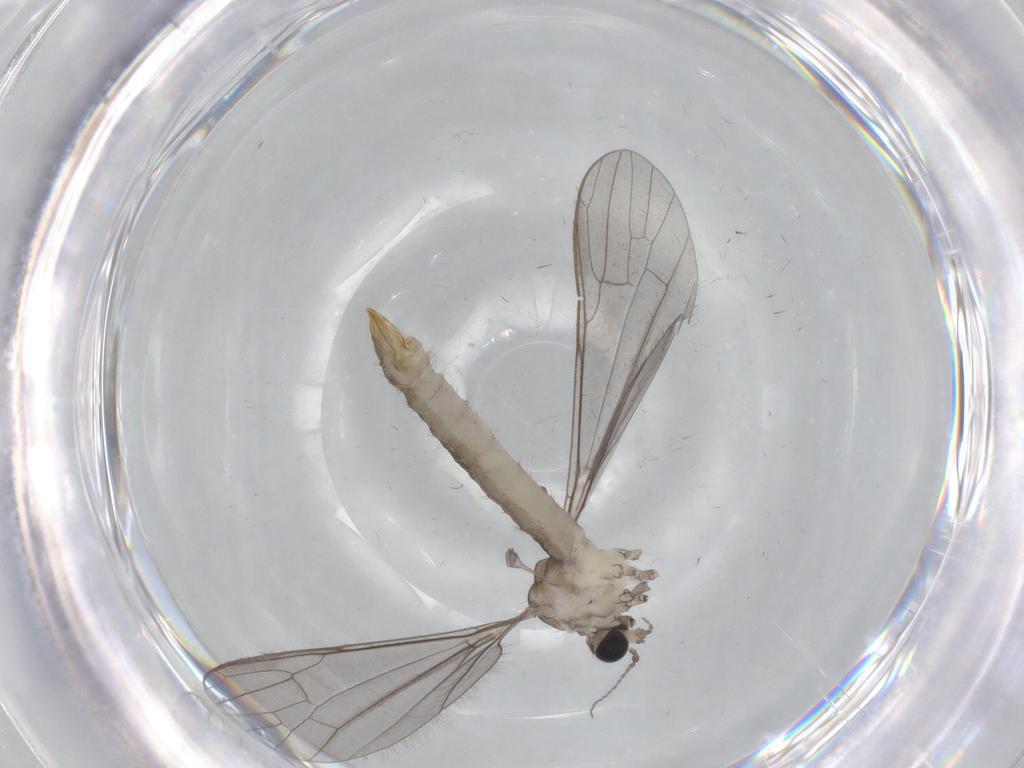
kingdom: Animalia
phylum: Arthropoda
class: Insecta
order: Diptera
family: Limoniidae
